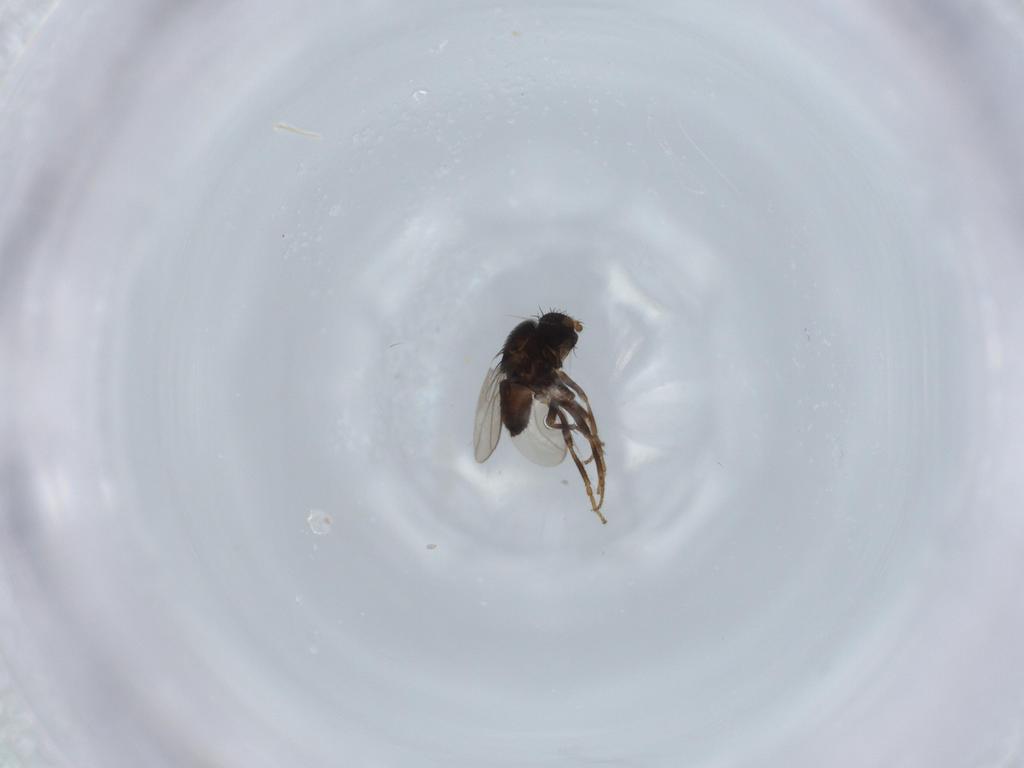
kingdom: Animalia
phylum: Arthropoda
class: Insecta
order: Diptera
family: Sphaeroceridae
